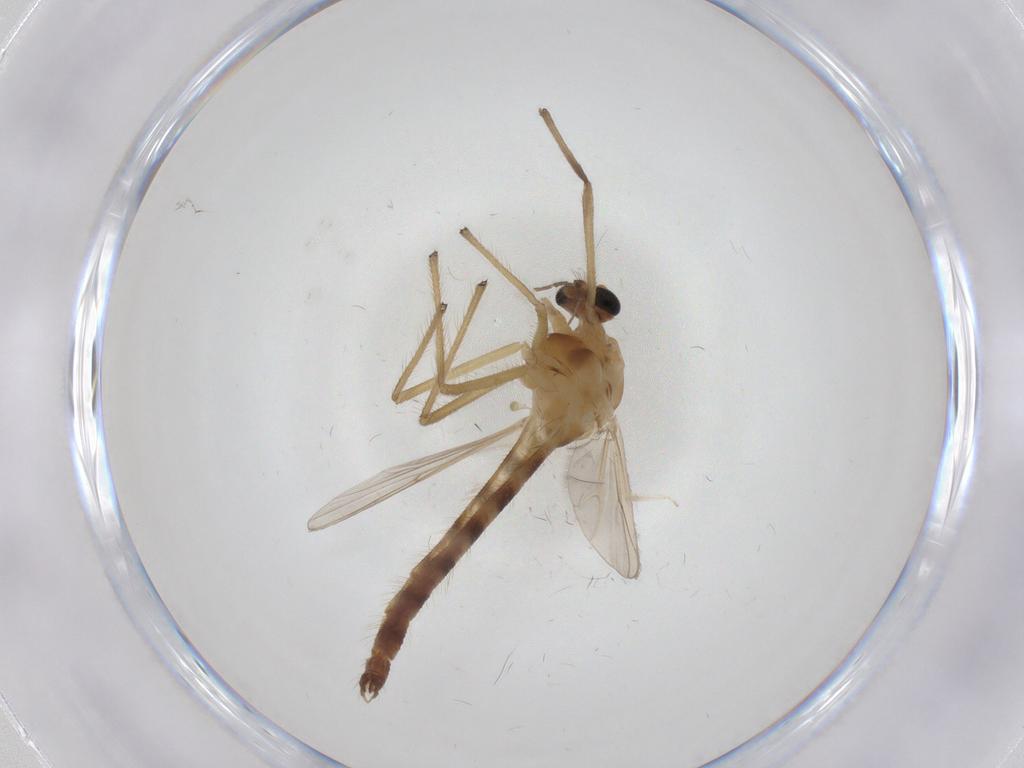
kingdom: Animalia
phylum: Arthropoda
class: Insecta
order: Diptera
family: Chironomidae
